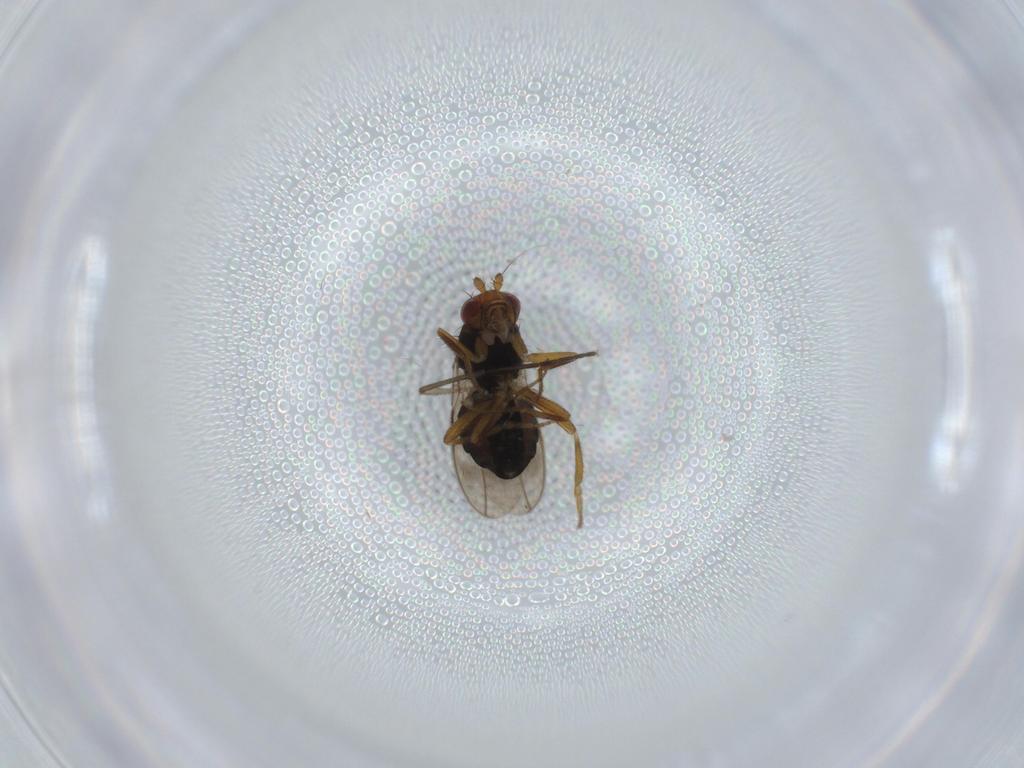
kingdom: Animalia
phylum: Arthropoda
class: Insecta
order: Diptera
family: Sphaeroceridae
